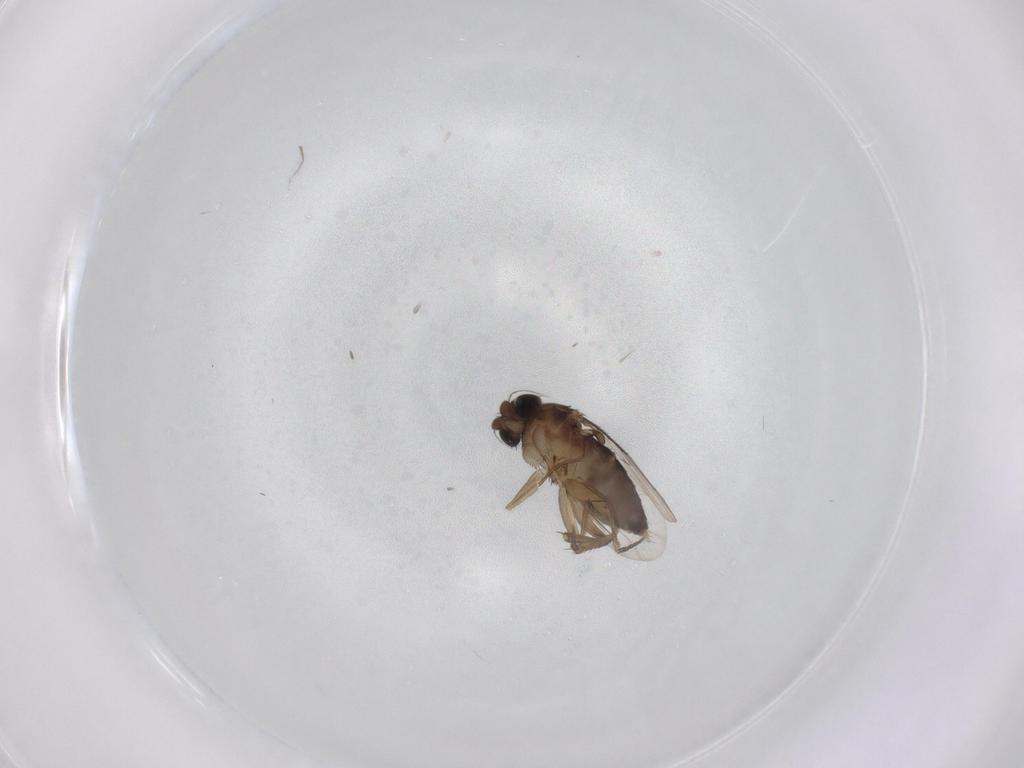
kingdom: Animalia
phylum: Arthropoda
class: Insecta
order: Diptera
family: Phoridae
